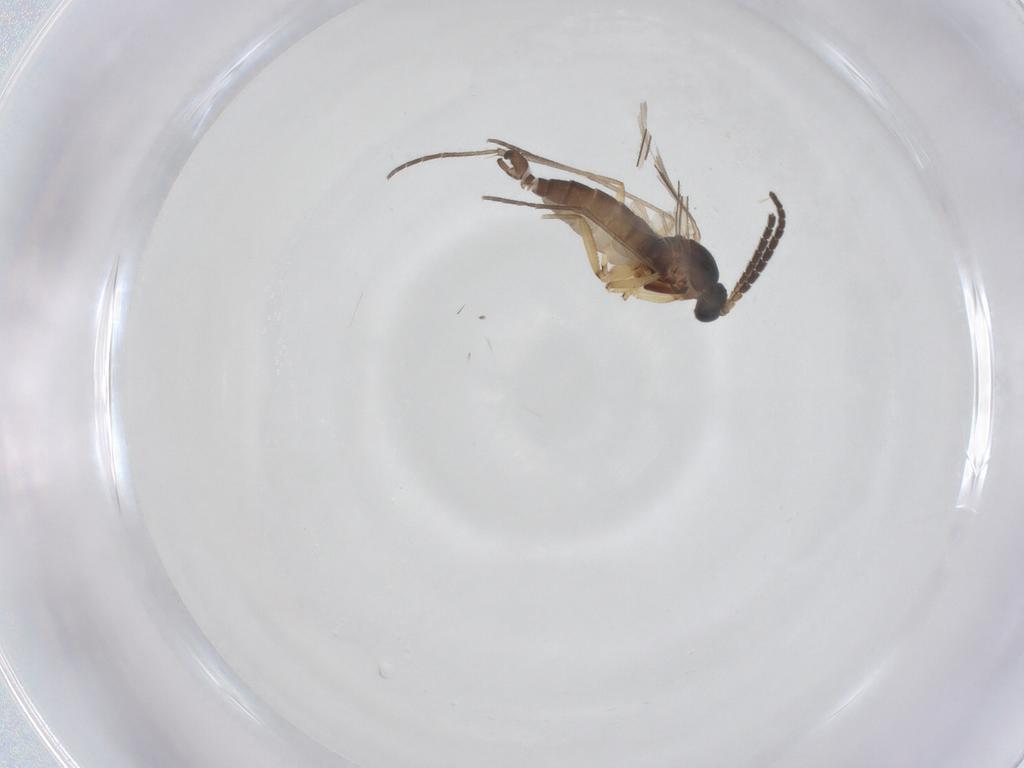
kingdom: Animalia
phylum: Arthropoda
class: Insecta
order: Diptera
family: Sciaridae
